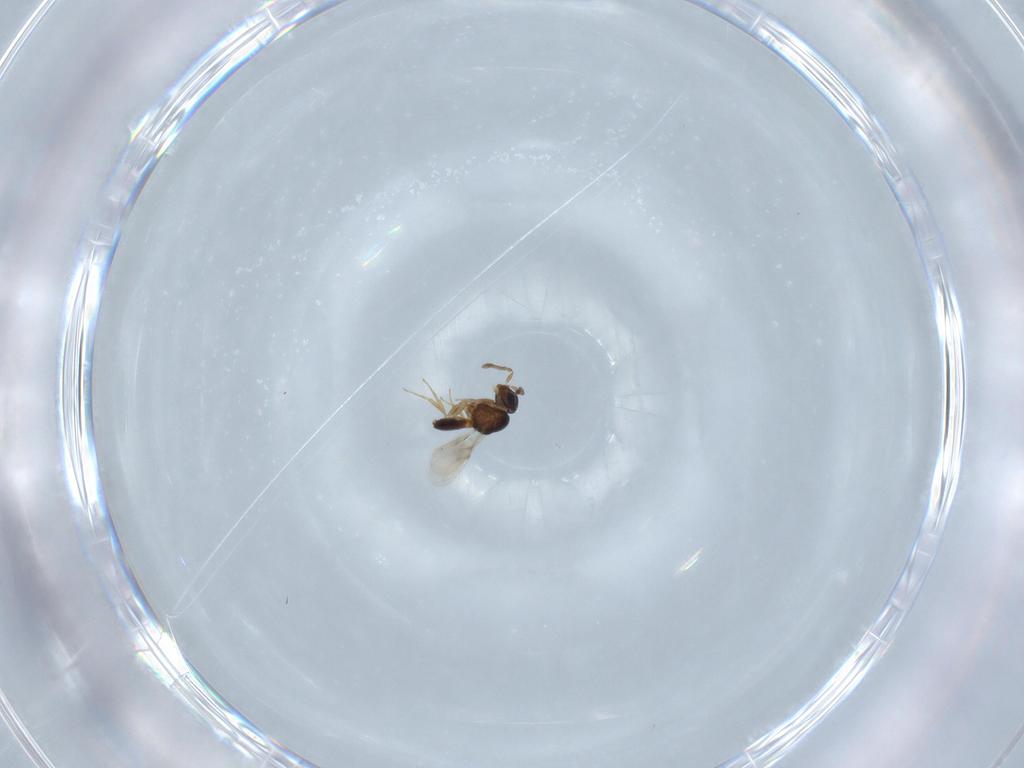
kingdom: Animalia
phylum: Arthropoda
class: Insecta
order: Hymenoptera
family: Scelionidae
